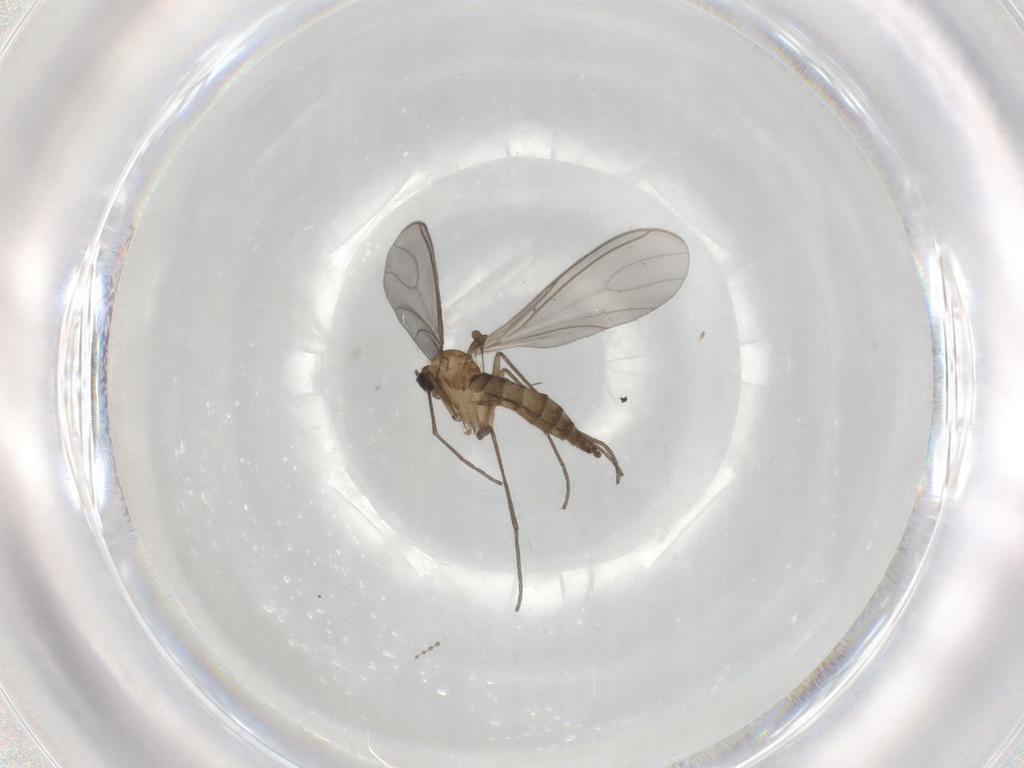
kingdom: Animalia
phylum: Arthropoda
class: Insecta
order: Diptera
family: Sciaridae
